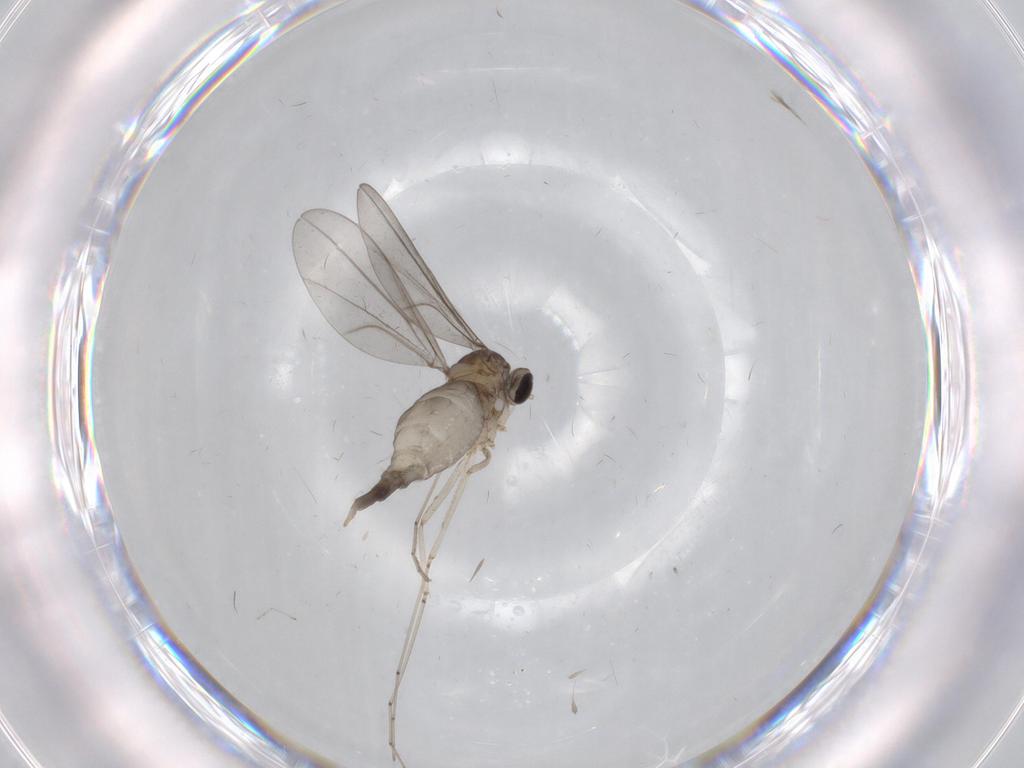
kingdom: Animalia
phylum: Arthropoda
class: Insecta
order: Diptera
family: Cecidomyiidae
